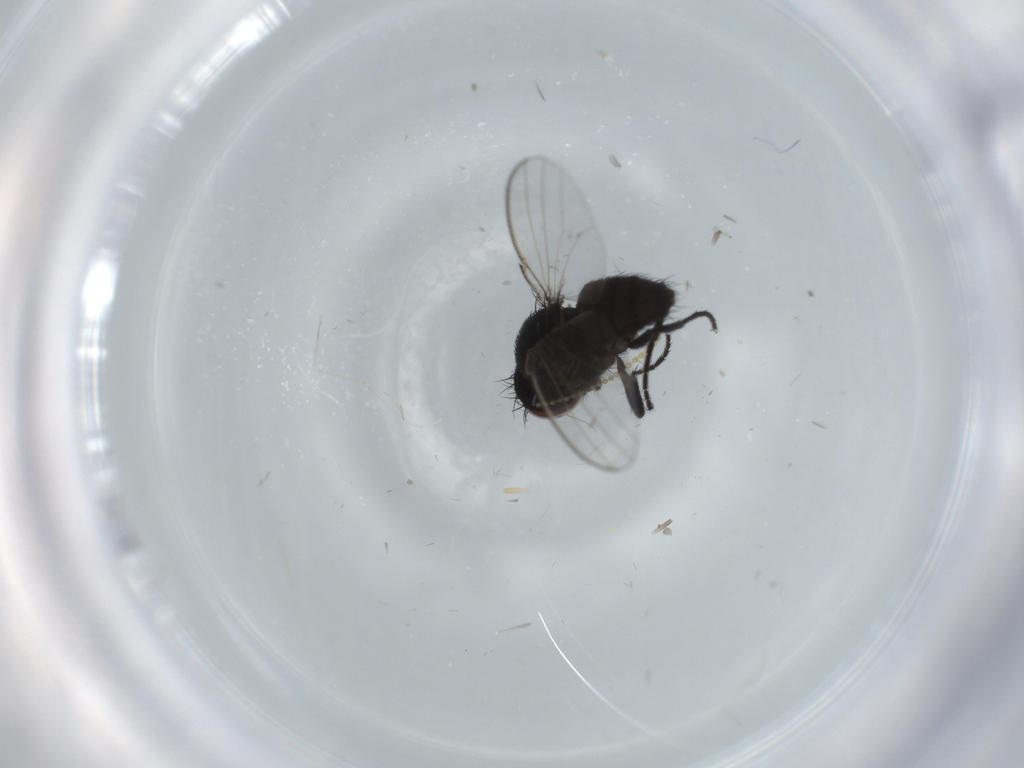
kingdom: Animalia
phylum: Arthropoda
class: Insecta
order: Diptera
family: Milichiidae
